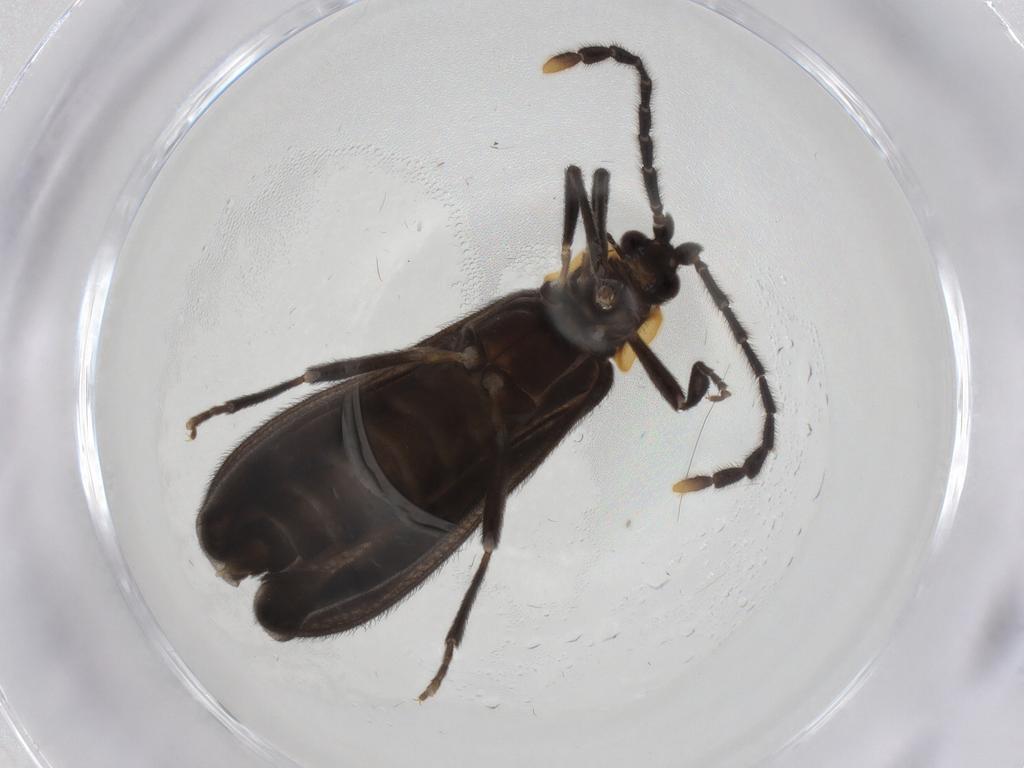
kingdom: Animalia
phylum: Arthropoda
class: Insecta
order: Coleoptera
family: Lycidae
